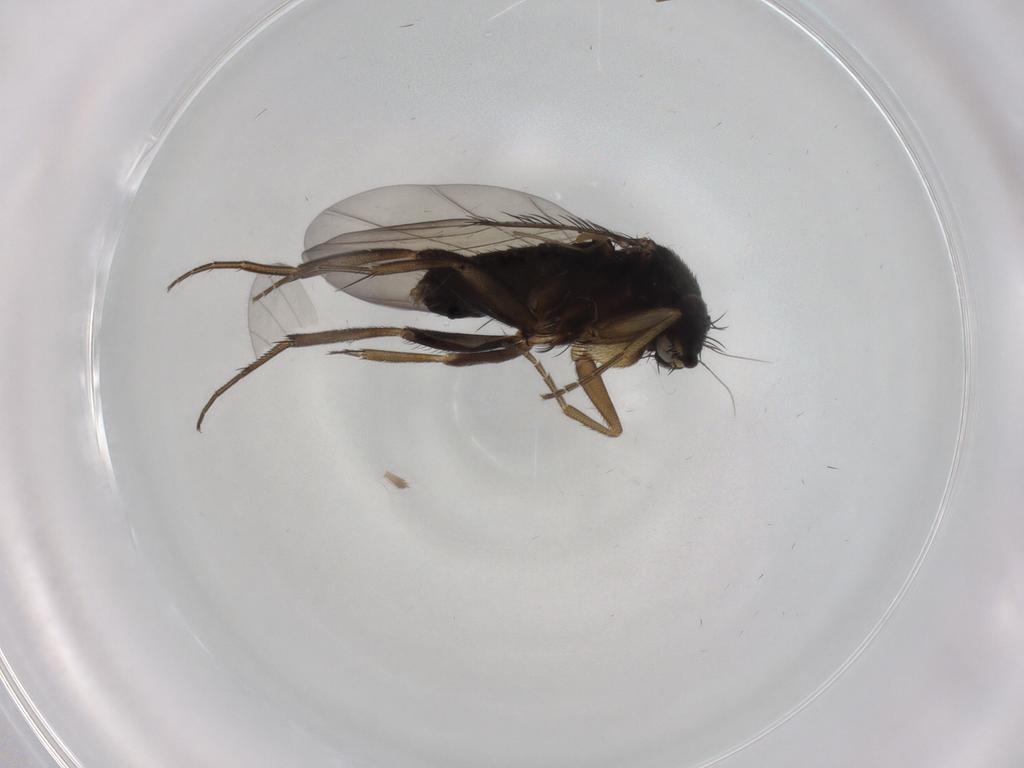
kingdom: Animalia
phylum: Arthropoda
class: Insecta
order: Diptera
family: Phoridae
